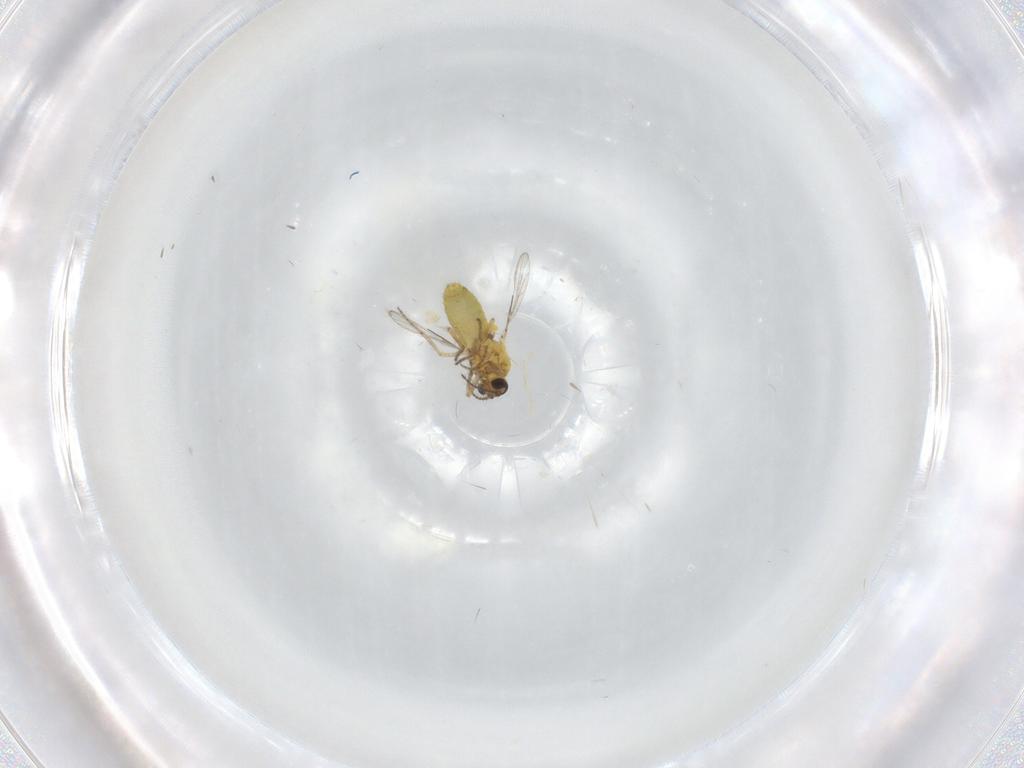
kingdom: Animalia
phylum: Arthropoda
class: Insecta
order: Diptera
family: Ceratopogonidae
